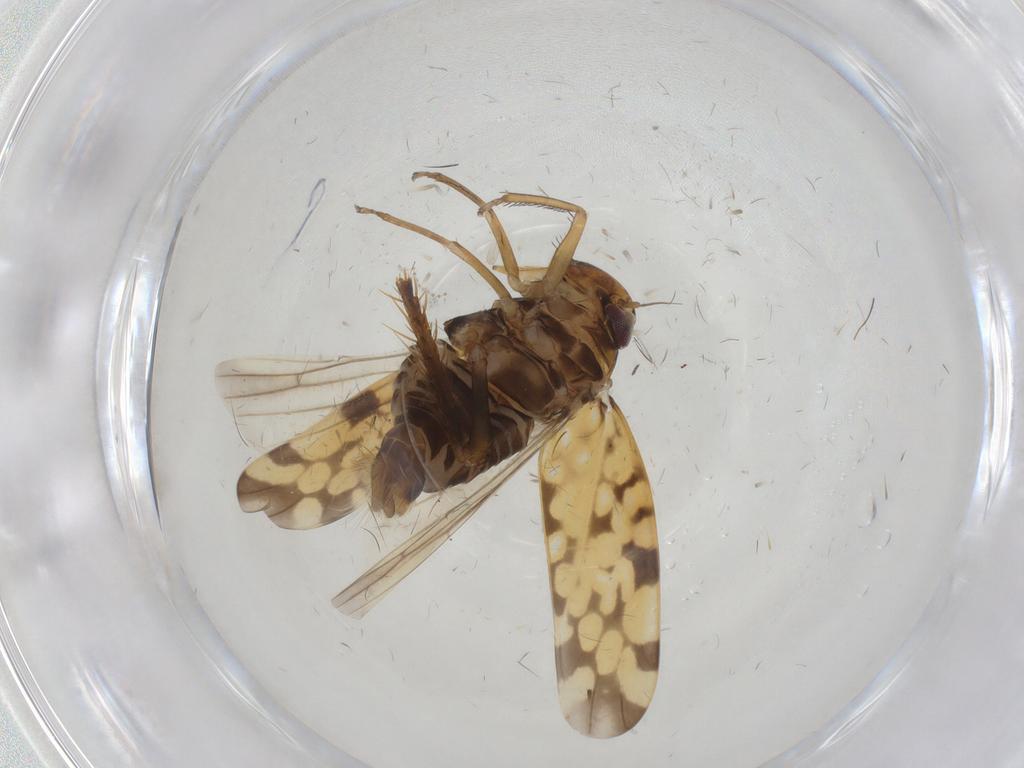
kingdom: Animalia
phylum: Arthropoda
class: Insecta
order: Hemiptera
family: Cicadellidae
